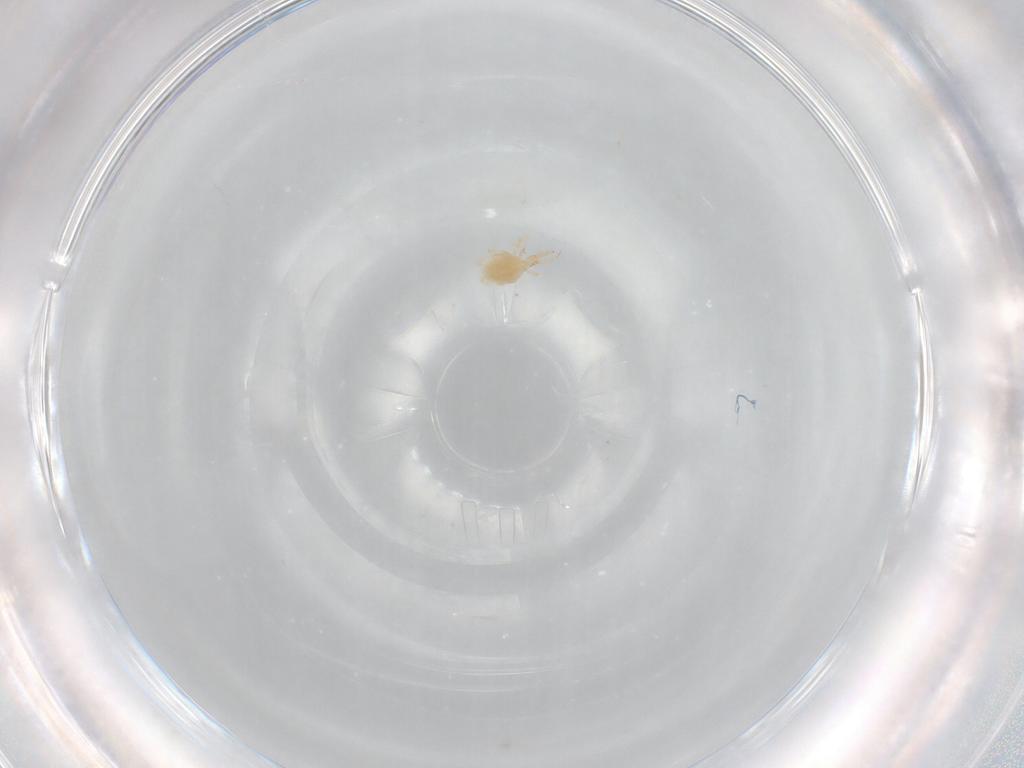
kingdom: Animalia
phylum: Arthropoda
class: Arachnida
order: Trombidiformes
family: Cunaxidae
